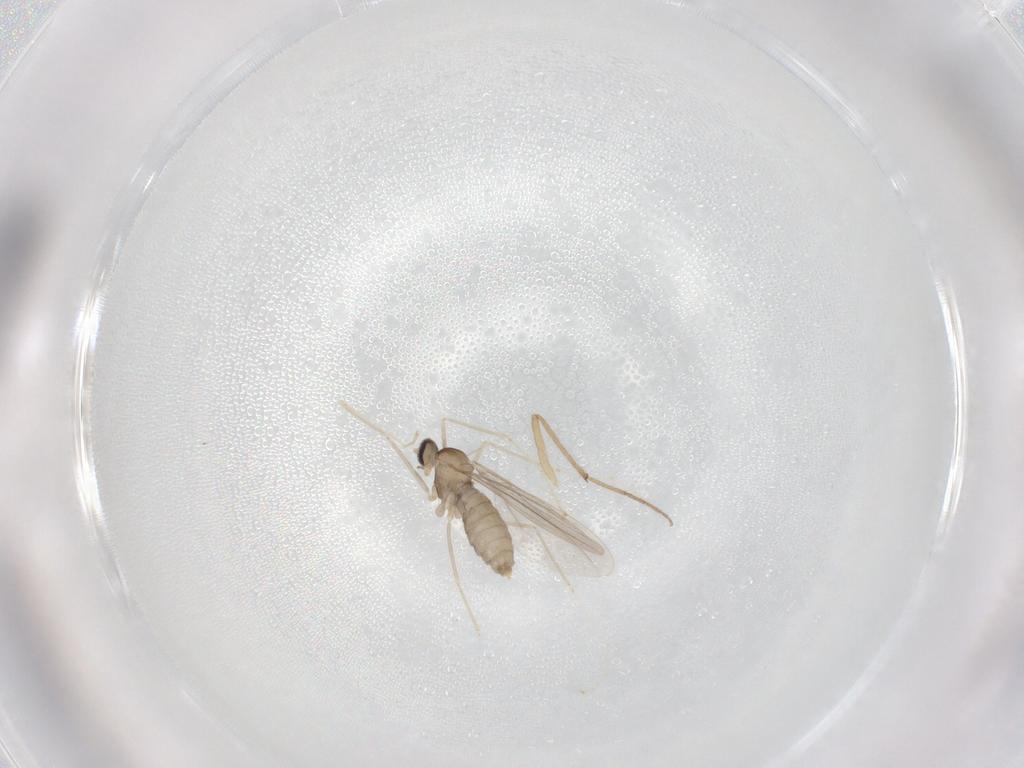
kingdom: Animalia
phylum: Arthropoda
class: Insecta
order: Diptera
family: Cecidomyiidae
